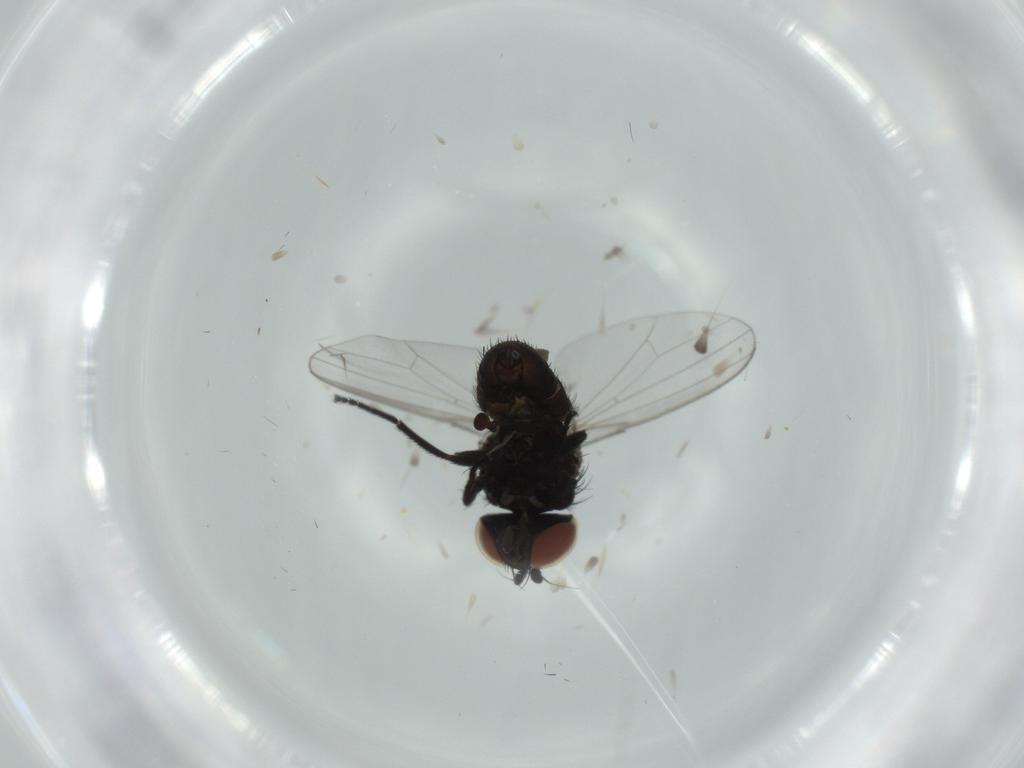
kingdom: Animalia
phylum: Arthropoda
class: Insecta
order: Diptera
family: Milichiidae
